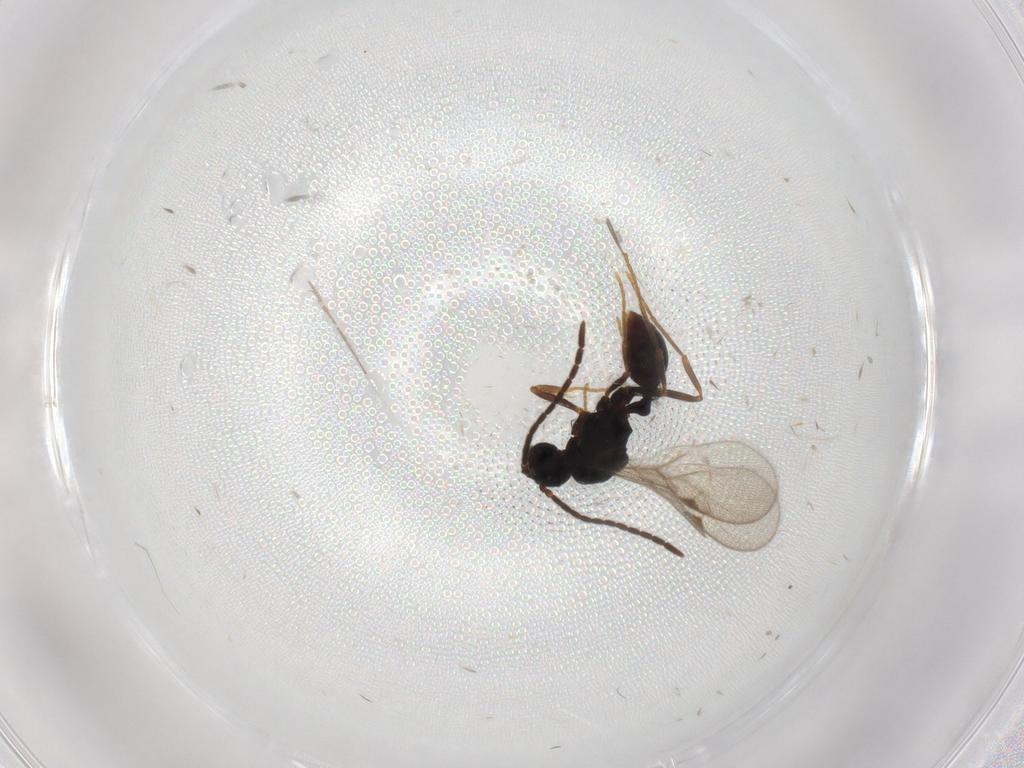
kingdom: Animalia
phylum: Arthropoda
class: Insecta
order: Hymenoptera
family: Formicidae
